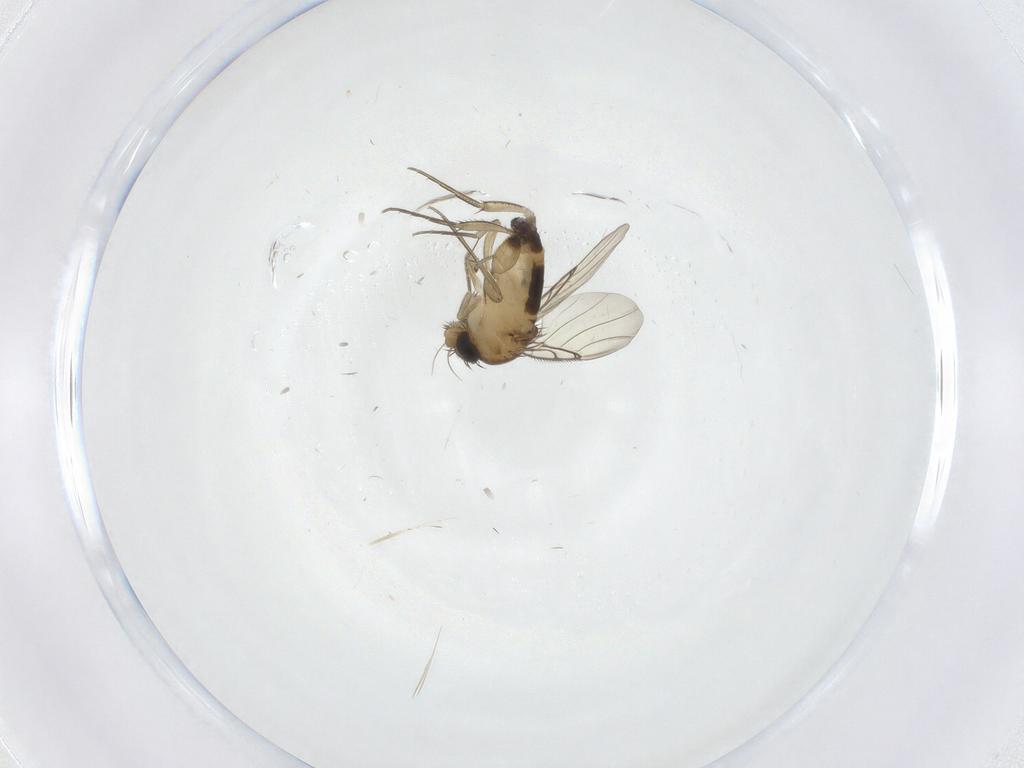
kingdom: Animalia
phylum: Arthropoda
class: Insecta
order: Diptera
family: Phoridae
